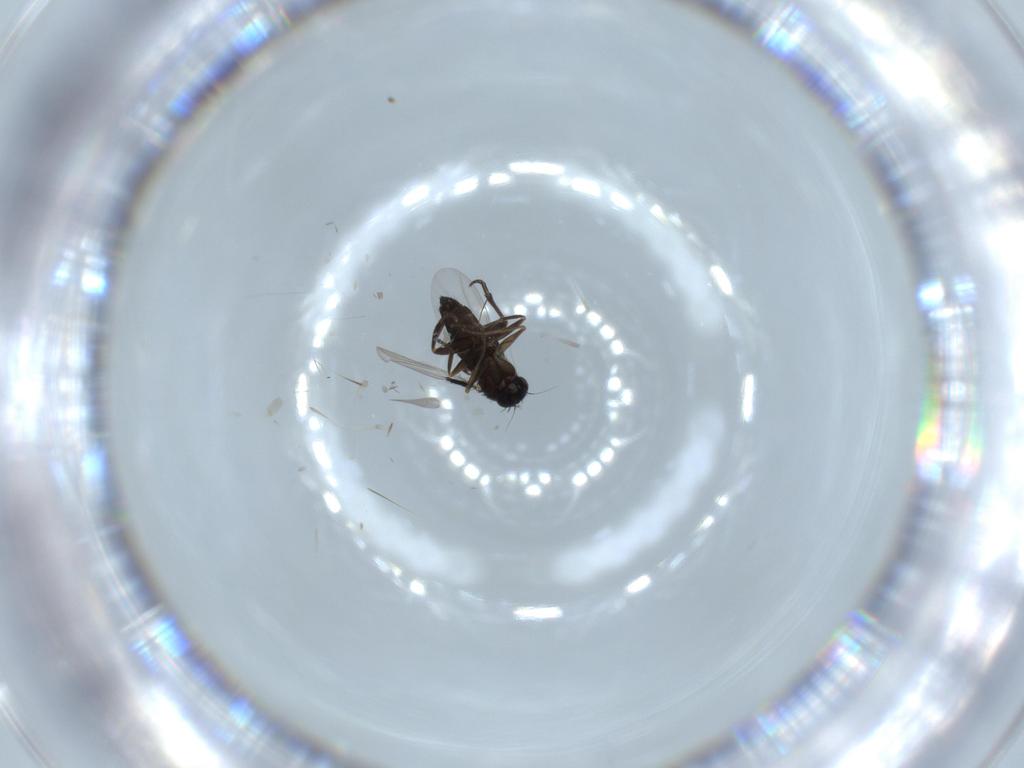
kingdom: Animalia
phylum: Arthropoda
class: Insecta
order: Diptera
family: Phoridae
